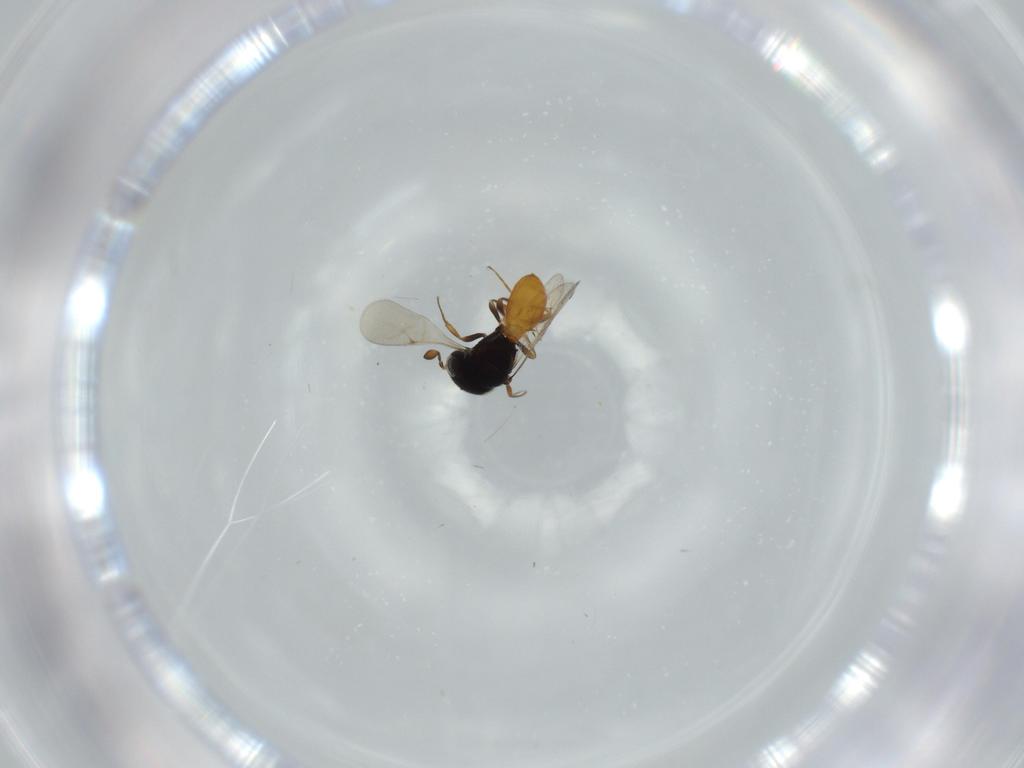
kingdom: Animalia
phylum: Arthropoda
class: Insecta
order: Hymenoptera
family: Scelionidae
